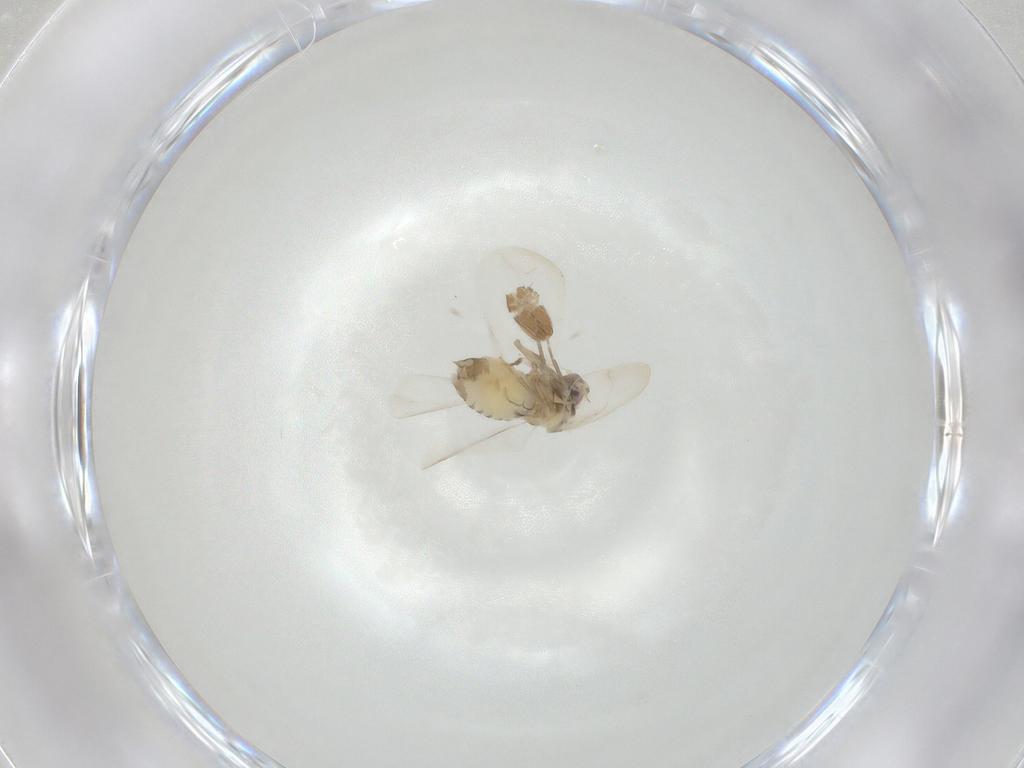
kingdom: Animalia
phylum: Arthropoda
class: Insecta
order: Hemiptera
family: Aleyrodidae
